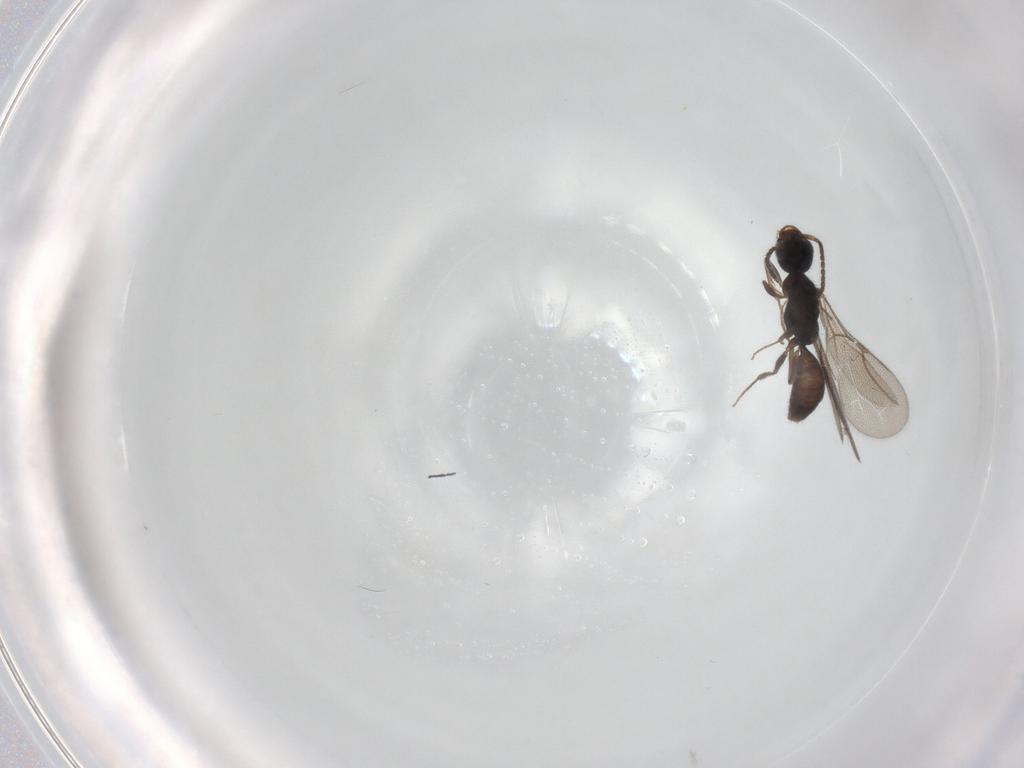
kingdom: Animalia
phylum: Arthropoda
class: Insecta
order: Hymenoptera
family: Bethylidae
